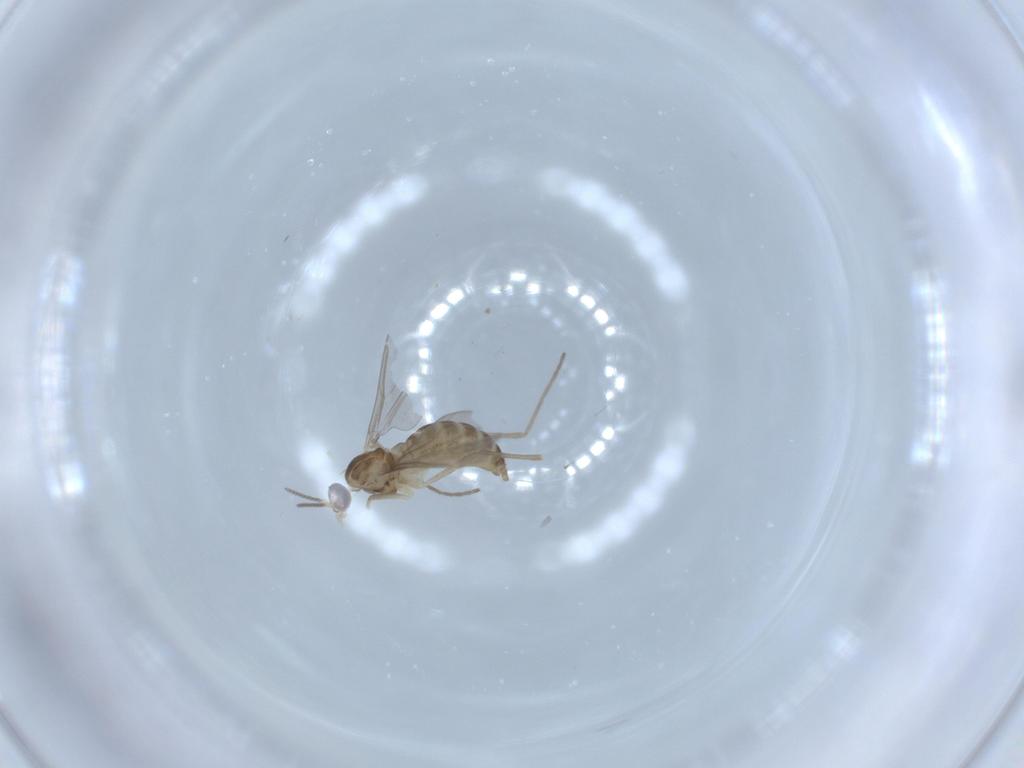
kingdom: Animalia
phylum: Arthropoda
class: Insecta
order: Diptera
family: Cecidomyiidae
